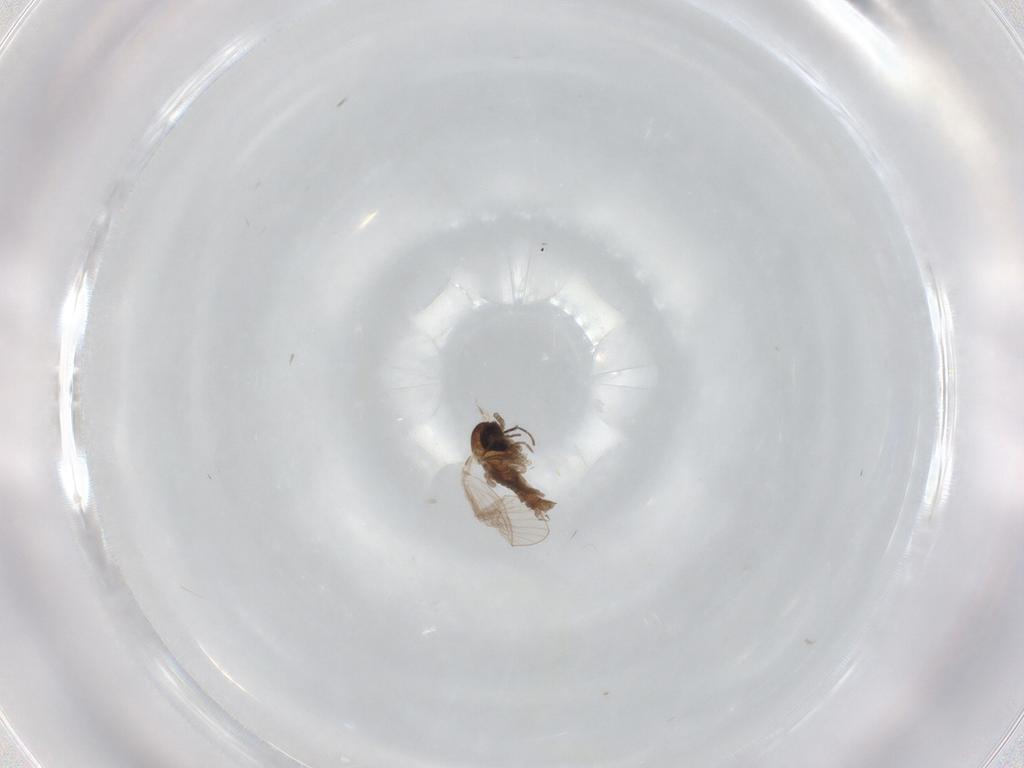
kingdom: Animalia
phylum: Arthropoda
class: Insecta
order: Diptera
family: Psychodidae
